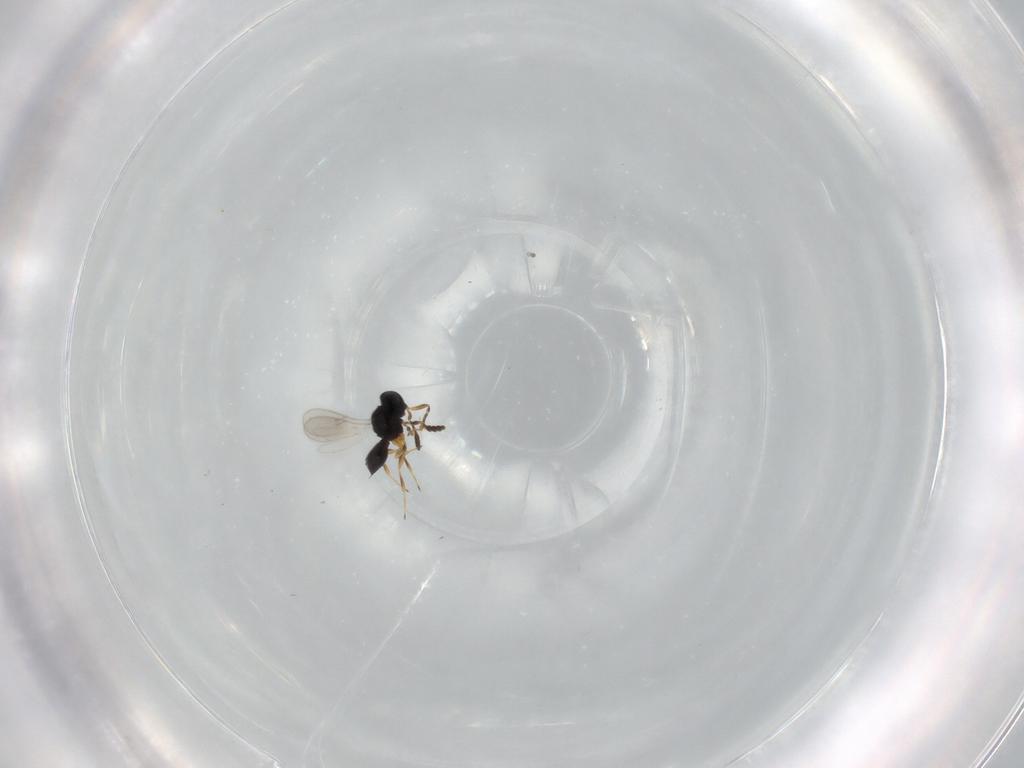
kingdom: Animalia
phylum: Arthropoda
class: Insecta
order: Hymenoptera
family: Scelionidae
